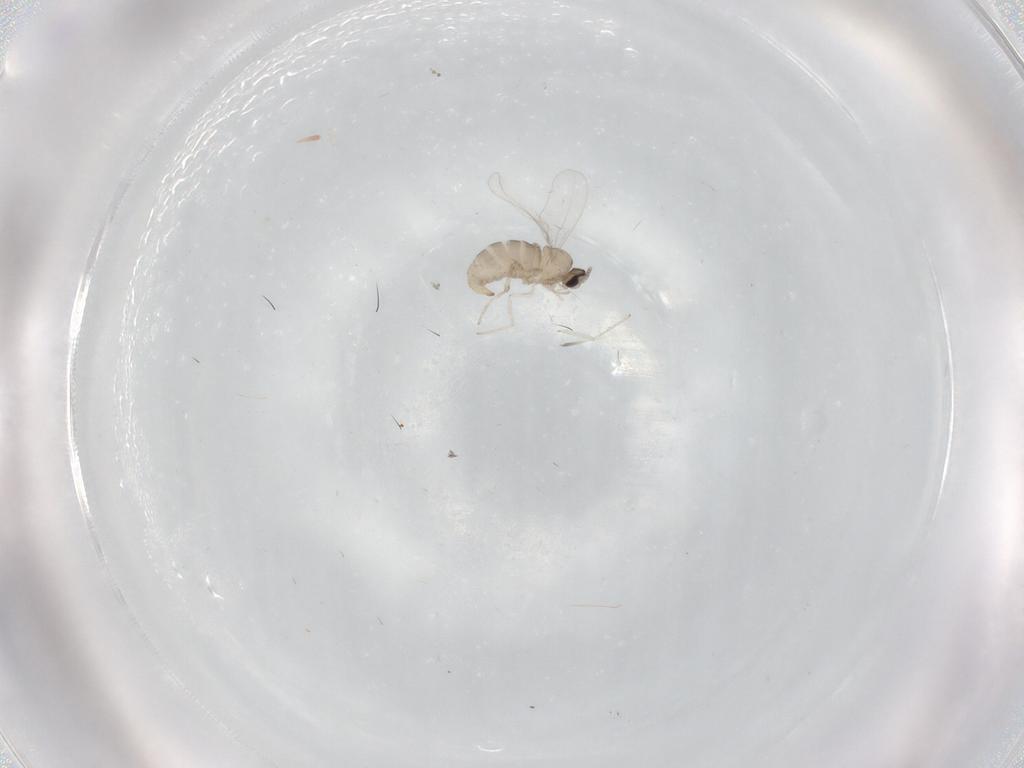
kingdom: Animalia
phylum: Arthropoda
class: Insecta
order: Diptera
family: Cecidomyiidae
